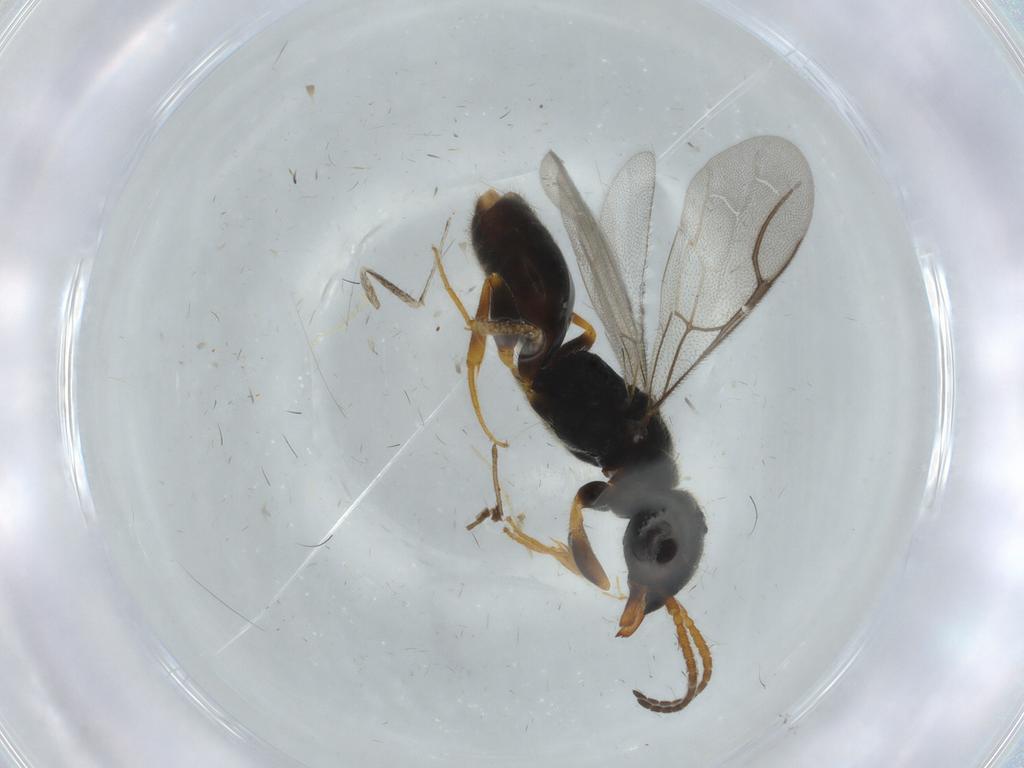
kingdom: Animalia
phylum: Arthropoda
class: Insecta
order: Hymenoptera
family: Bethylidae
